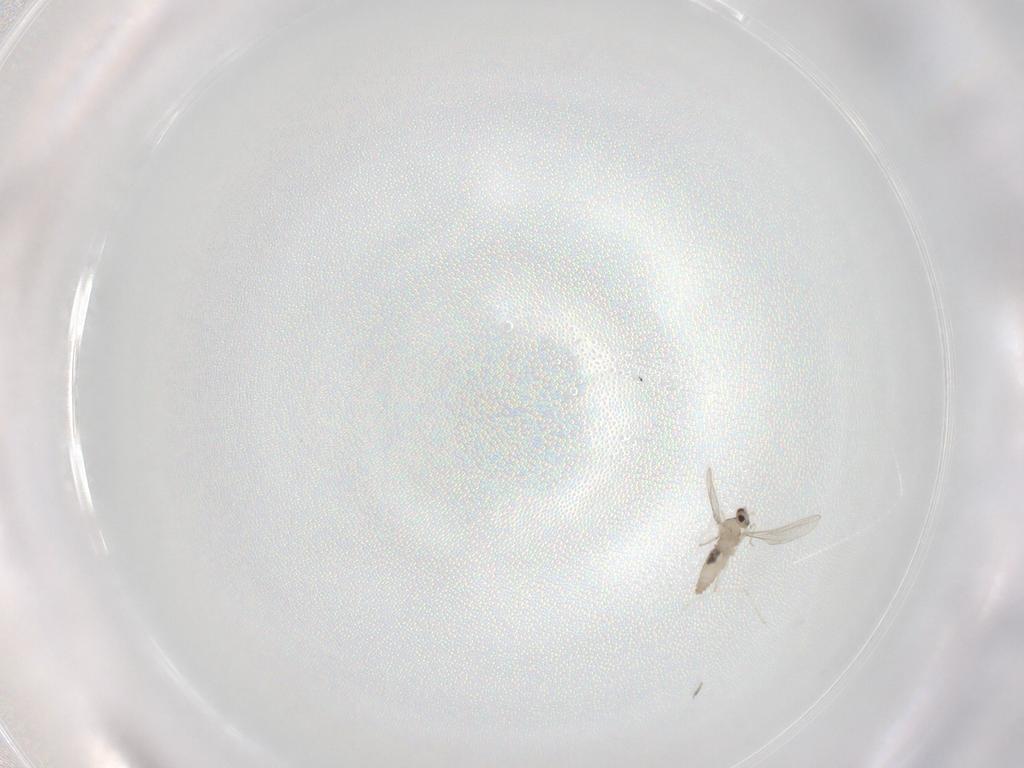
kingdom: Animalia
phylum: Arthropoda
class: Insecta
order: Diptera
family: Cecidomyiidae
